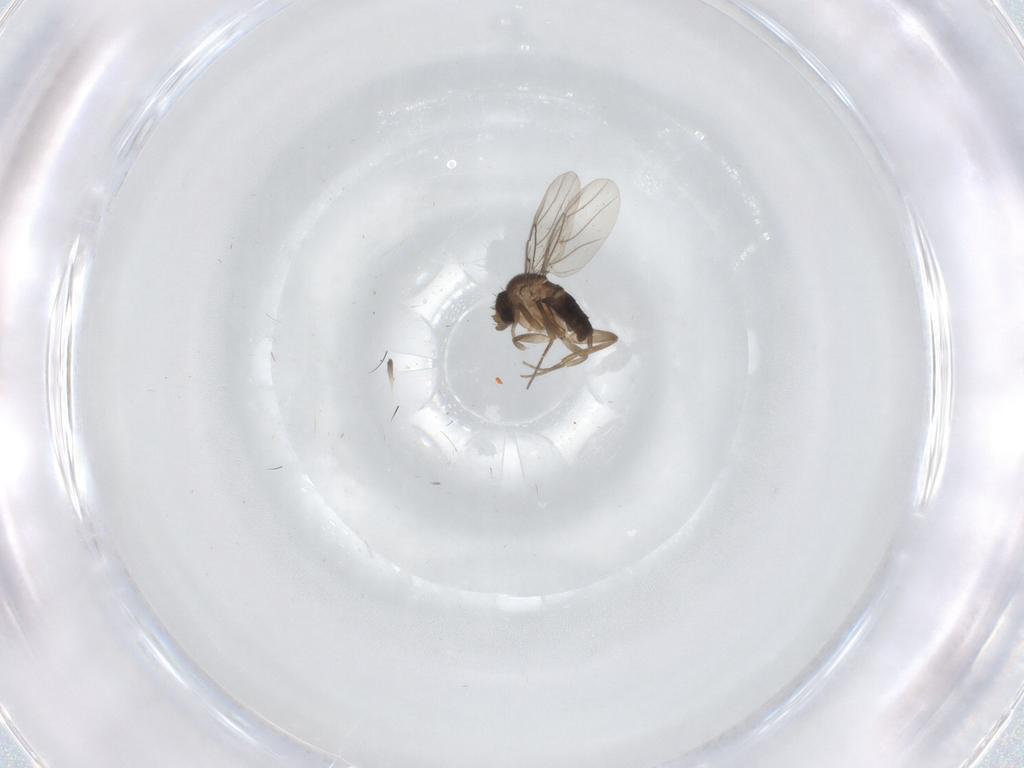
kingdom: Animalia
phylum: Arthropoda
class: Insecta
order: Diptera
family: Phoridae
